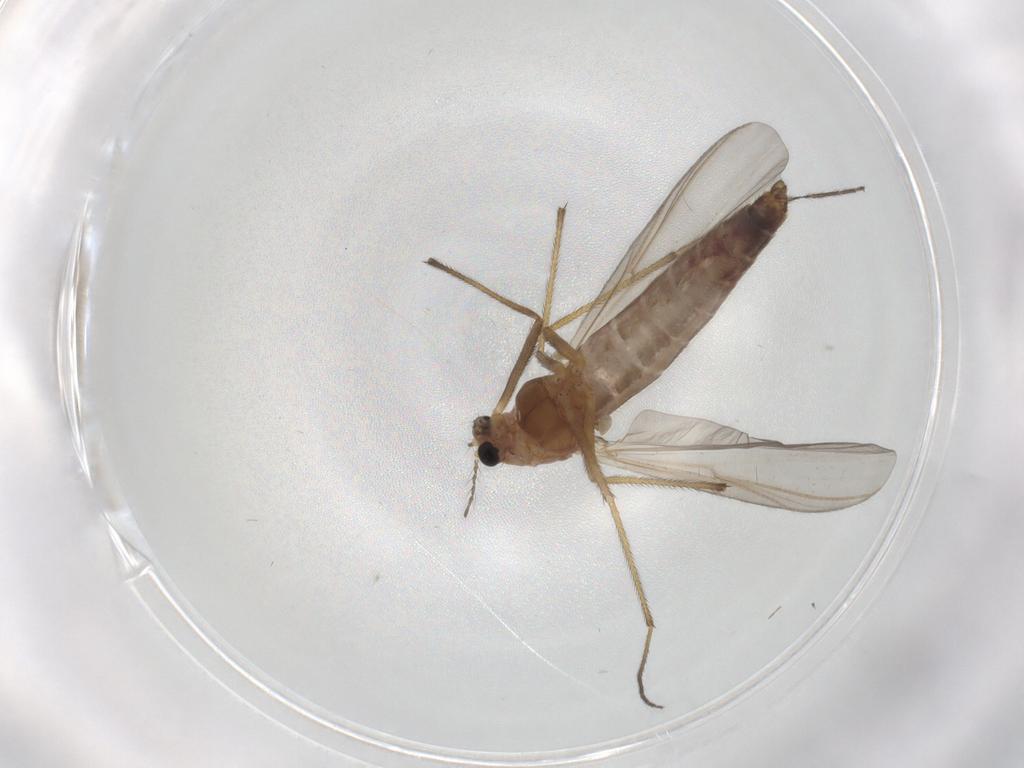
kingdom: Animalia
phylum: Arthropoda
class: Insecta
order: Diptera
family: Chironomidae
